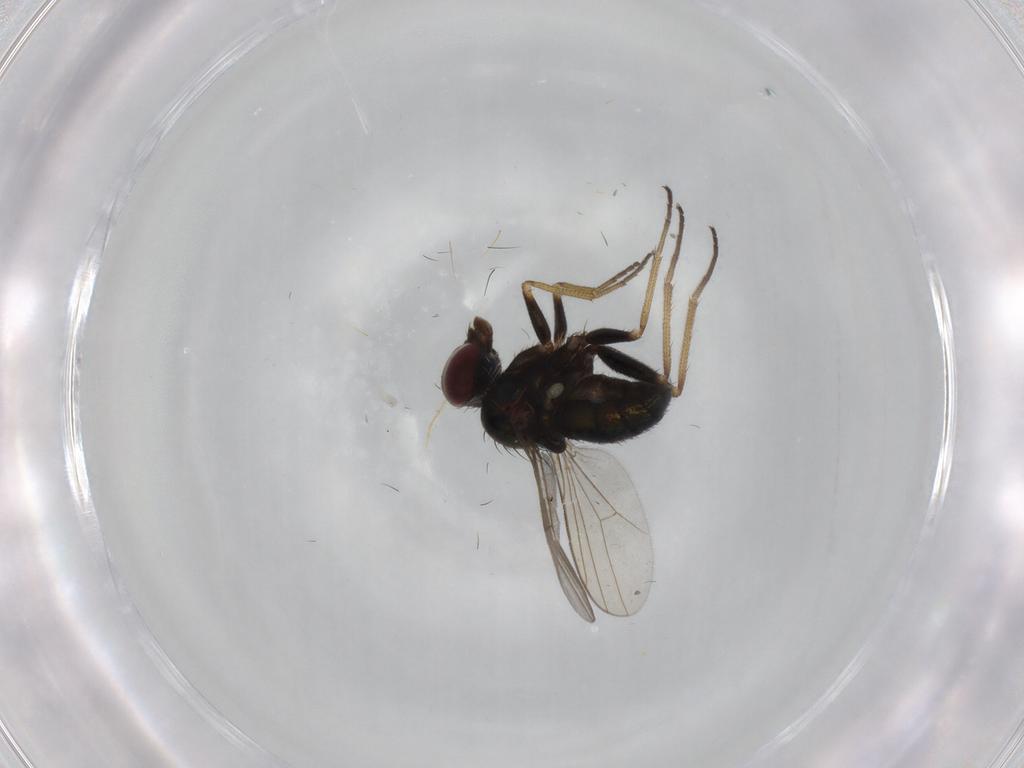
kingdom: Animalia
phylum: Arthropoda
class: Insecta
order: Diptera
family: Dolichopodidae
